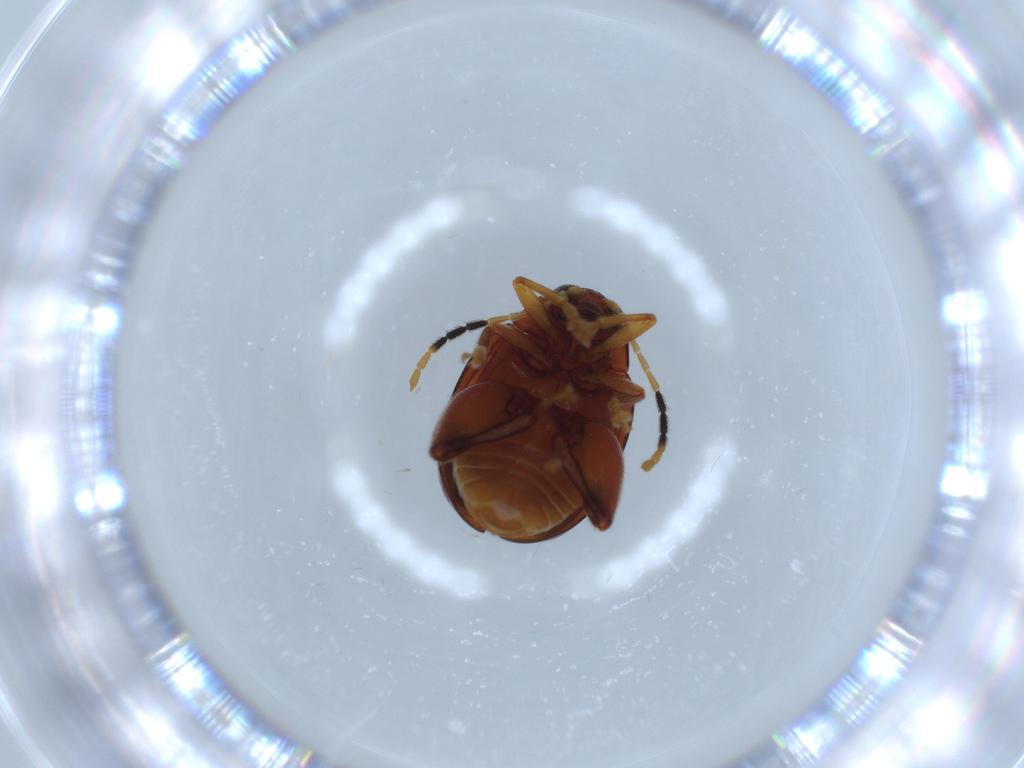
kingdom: Animalia
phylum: Arthropoda
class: Insecta
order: Coleoptera
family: Chrysomelidae
